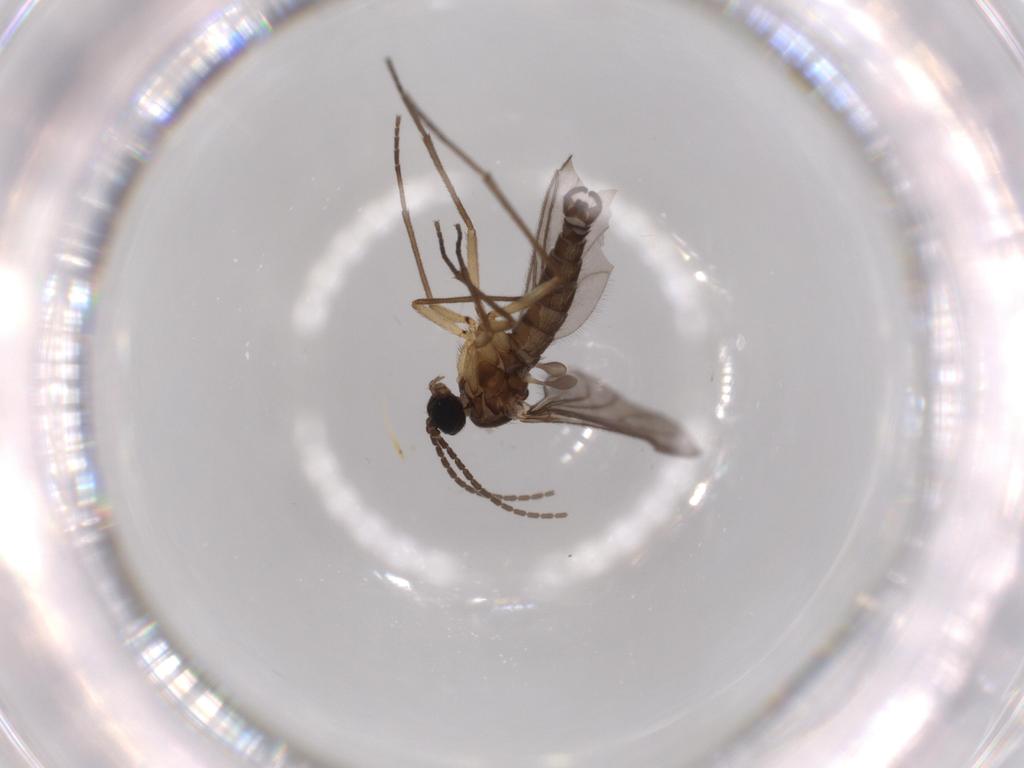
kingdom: Animalia
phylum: Arthropoda
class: Insecta
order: Diptera
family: Sciaridae
